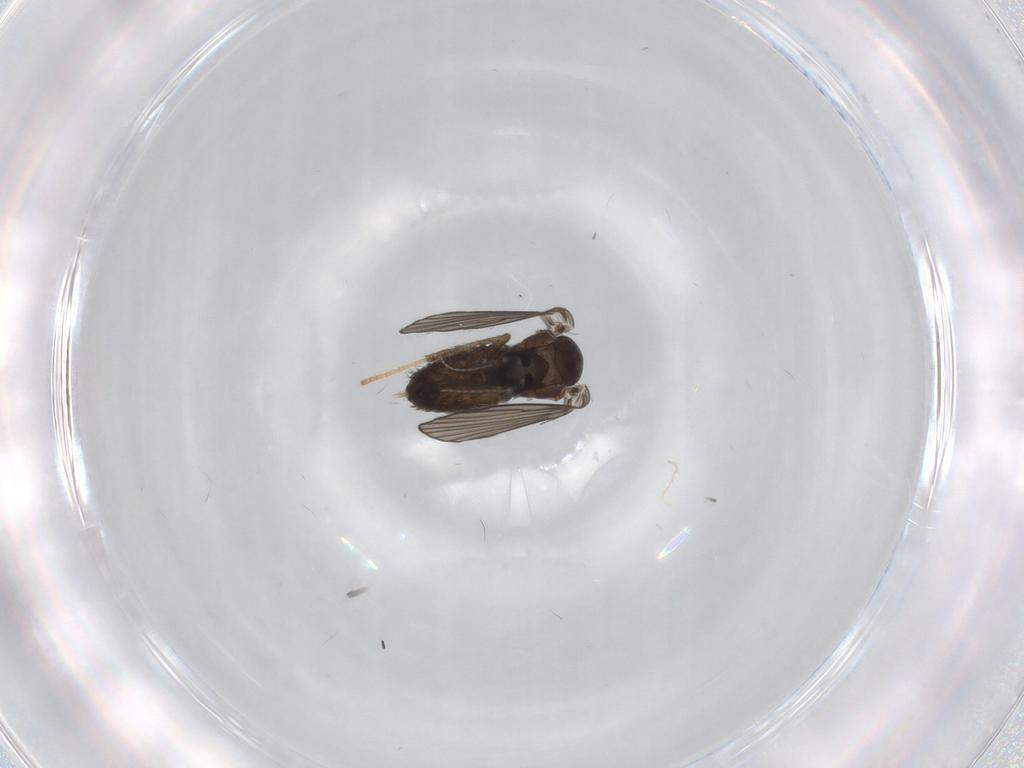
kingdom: Animalia
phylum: Arthropoda
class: Insecta
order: Diptera
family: Psychodidae
